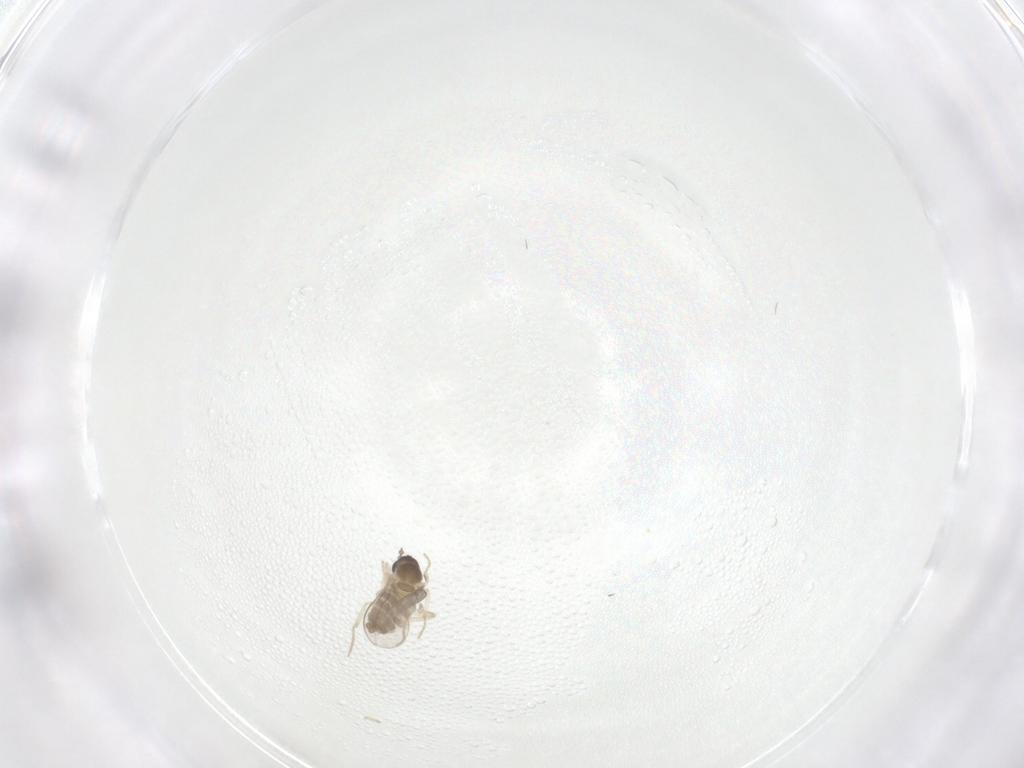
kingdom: Animalia
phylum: Arthropoda
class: Insecta
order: Diptera
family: Cecidomyiidae
